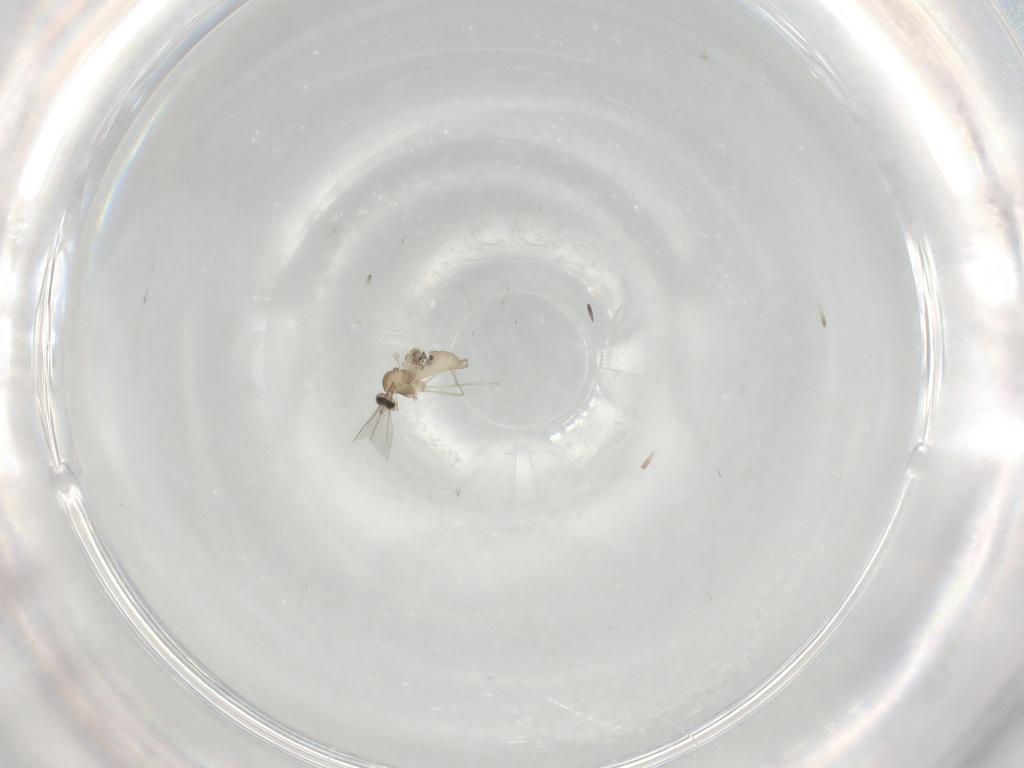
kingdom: Animalia
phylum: Arthropoda
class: Insecta
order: Diptera
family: Cecidomyiidae
